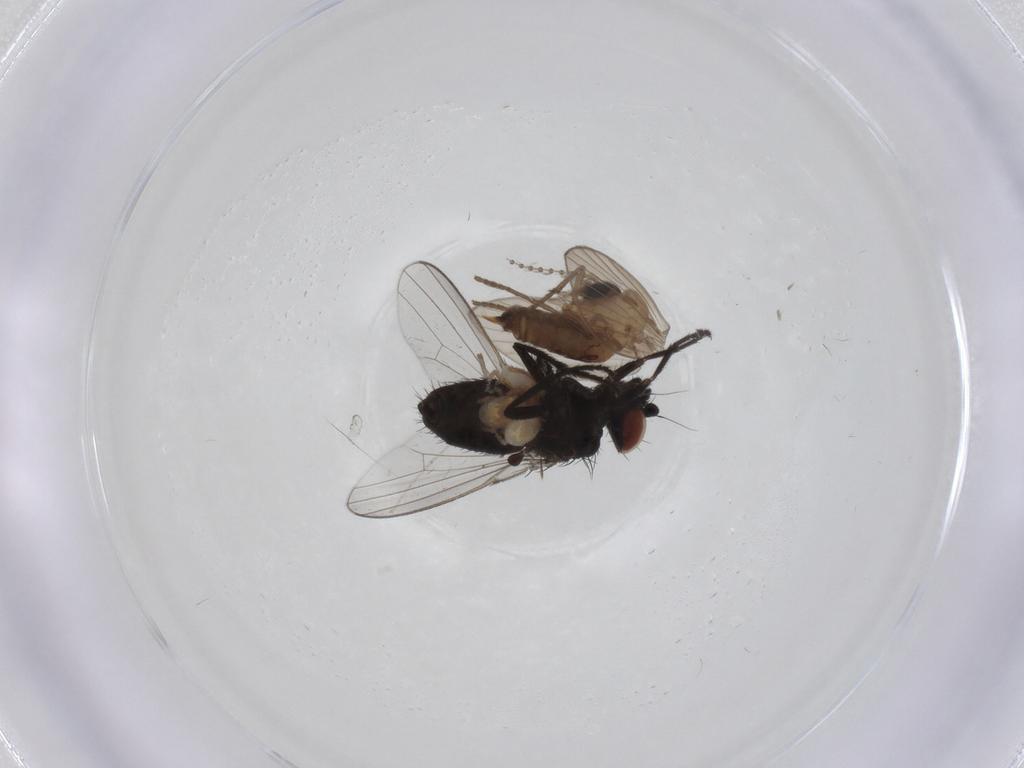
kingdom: Animalia
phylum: Arthropoda
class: Insecta
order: Diptera
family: Psychodidae
